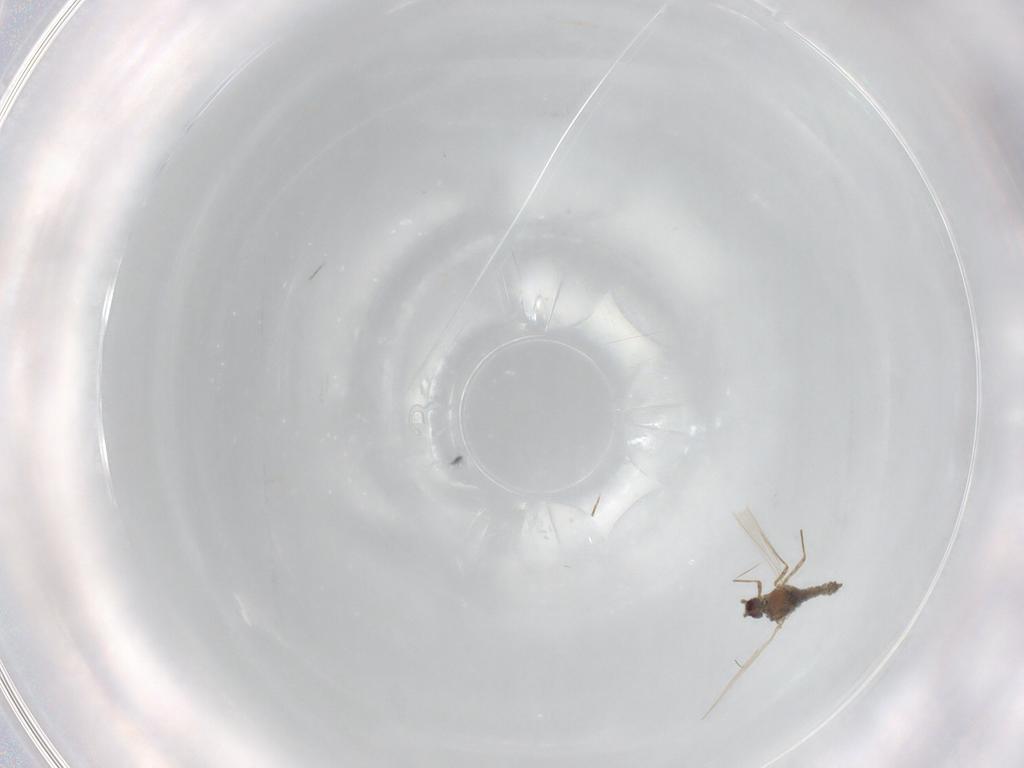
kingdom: Animalia
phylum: Arthropoda
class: Insecta
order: Hemiptera
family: Pseudococcidae
